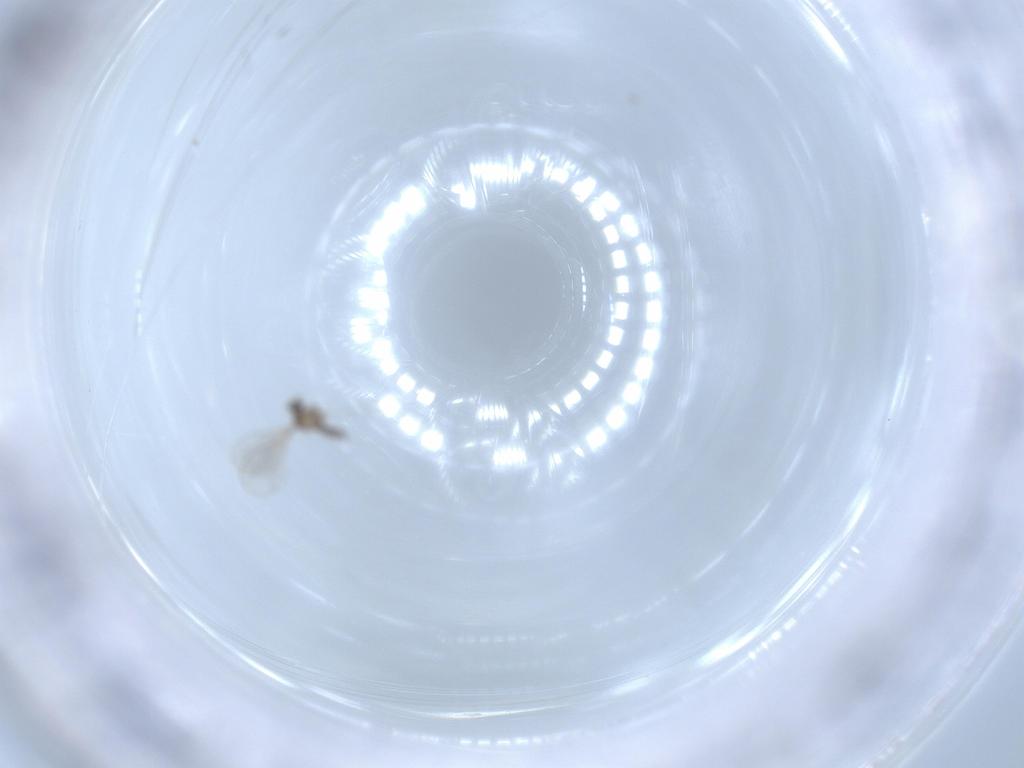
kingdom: Animalia
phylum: Arthropoda
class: Insecta
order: Diptera
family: Cecidomyiidae
